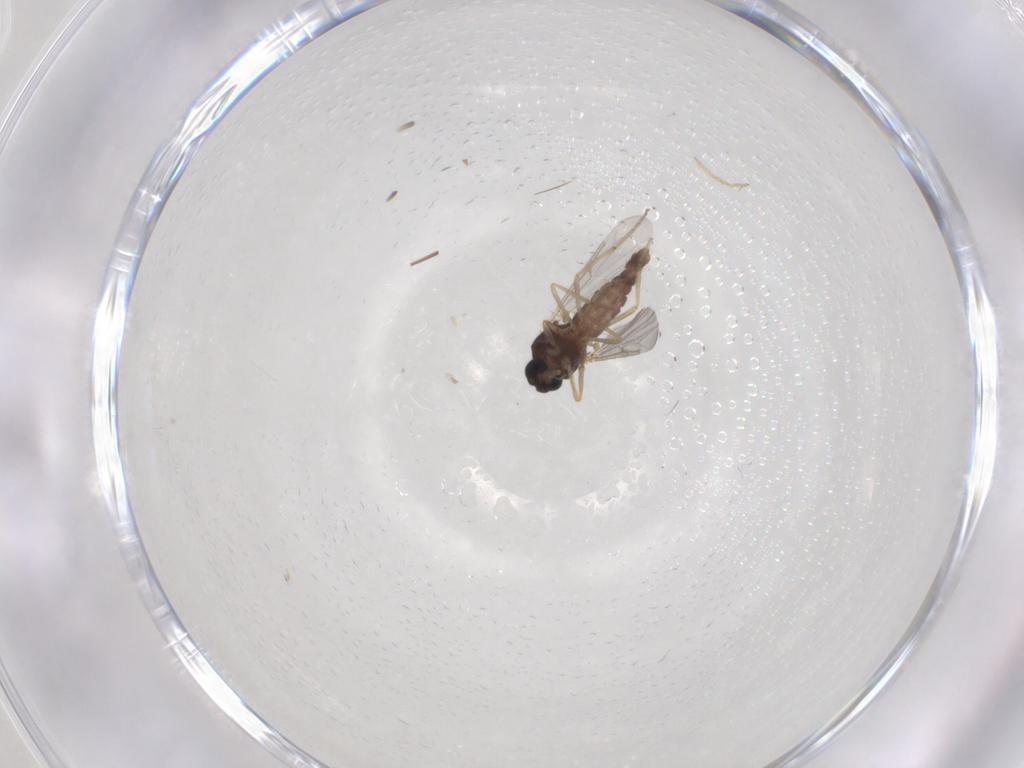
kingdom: Animalia
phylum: Arthropoda
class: Insecta
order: Diptera
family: Ceratopogonidae
